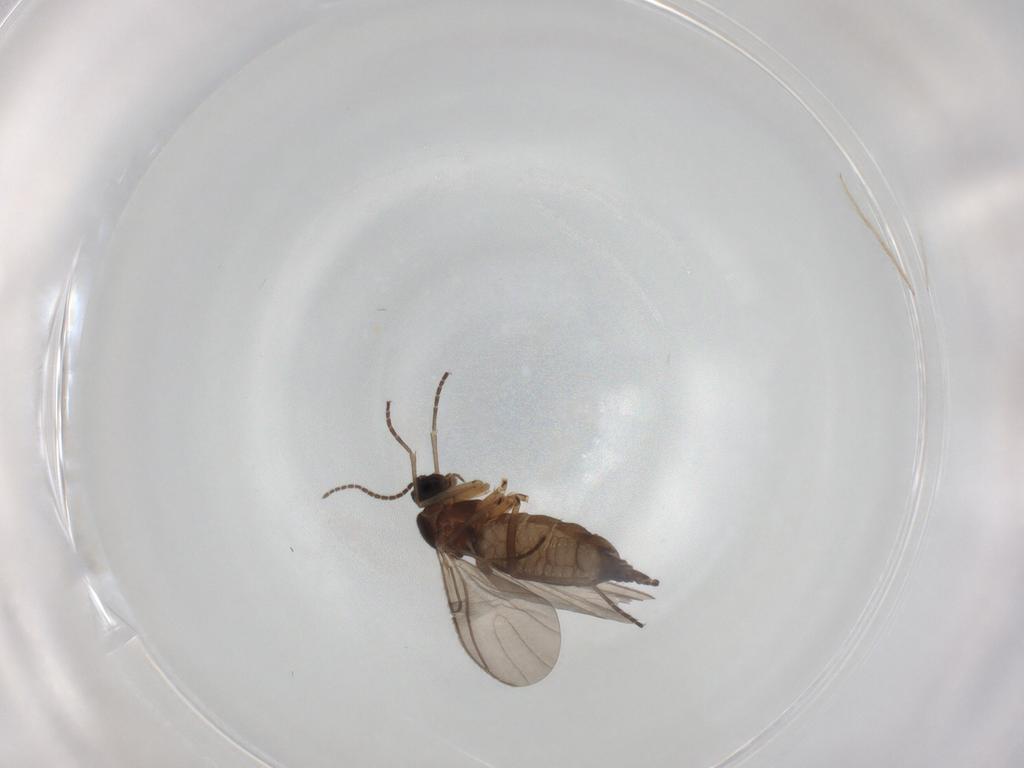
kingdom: Animalia
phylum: Arthropoda
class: Insecta
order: Diptera
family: Sciaridae
